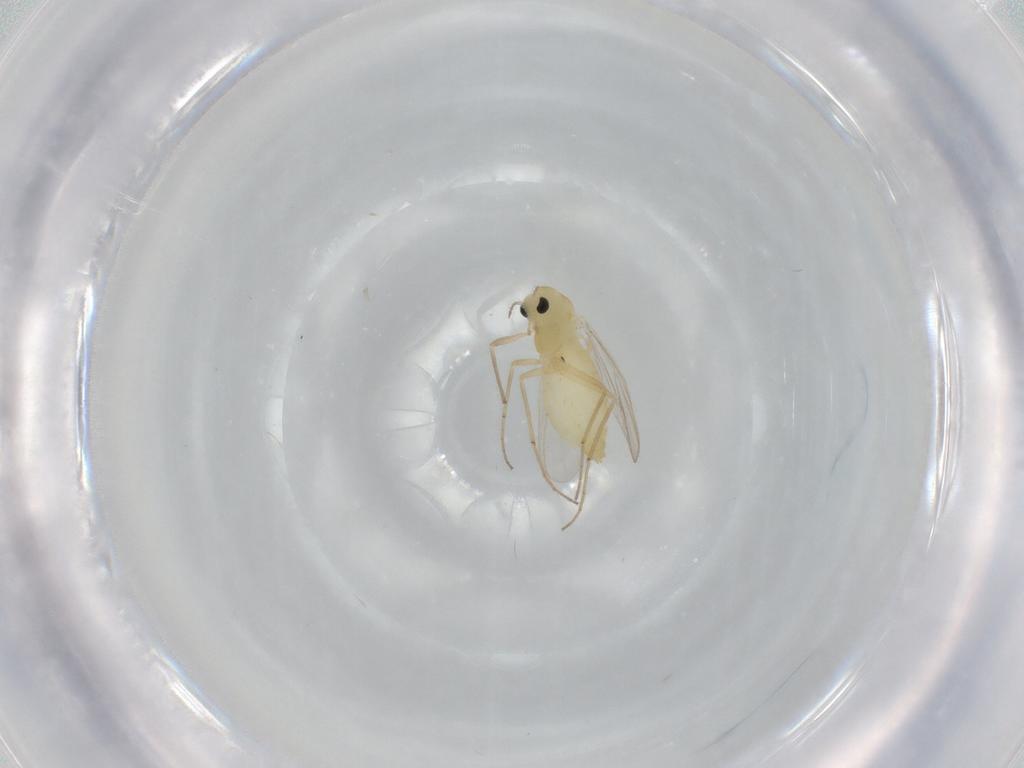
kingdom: Animalia
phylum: Arthropoda
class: Insecta
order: Diptera
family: Chironomidae
